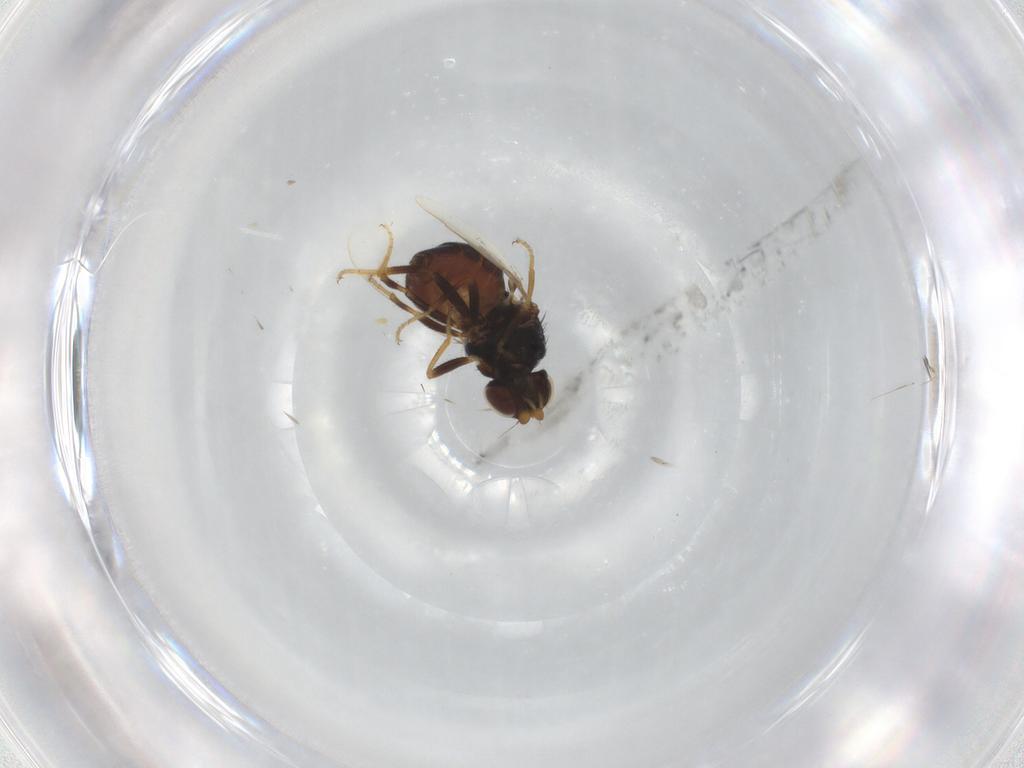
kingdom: Animalia
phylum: Arthropoda
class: Insecta
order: Diptera
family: Chloropidae
